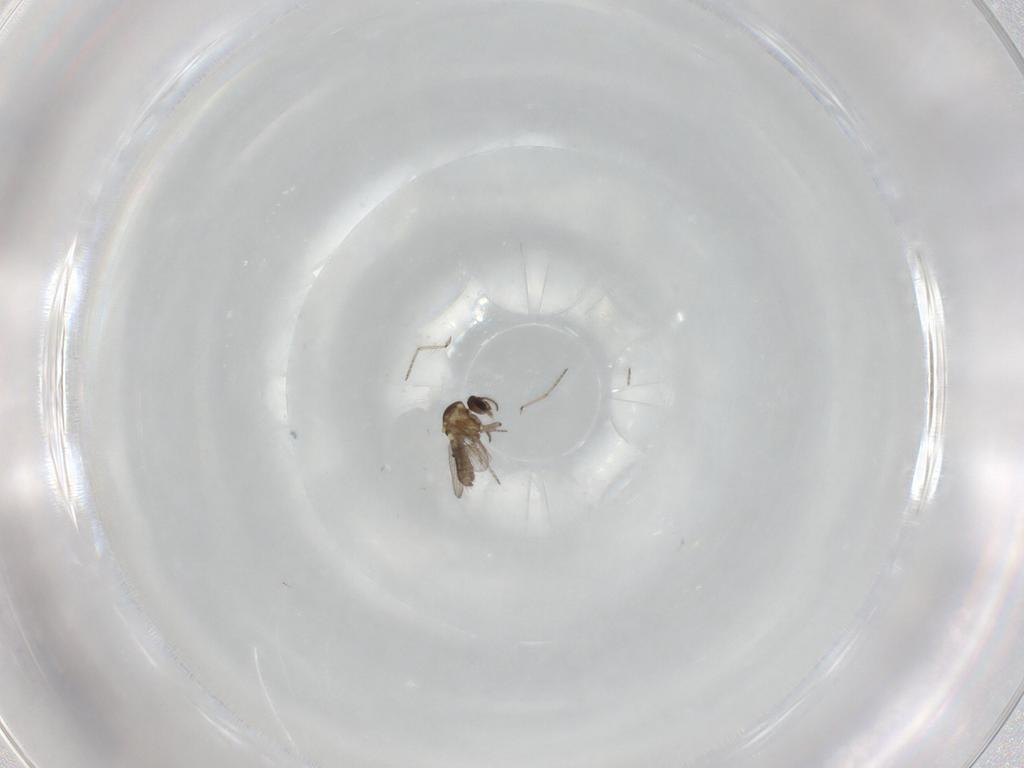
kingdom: Animalia
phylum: Arthropoda
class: Insecta
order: Diptera
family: Ceratopogonidae
